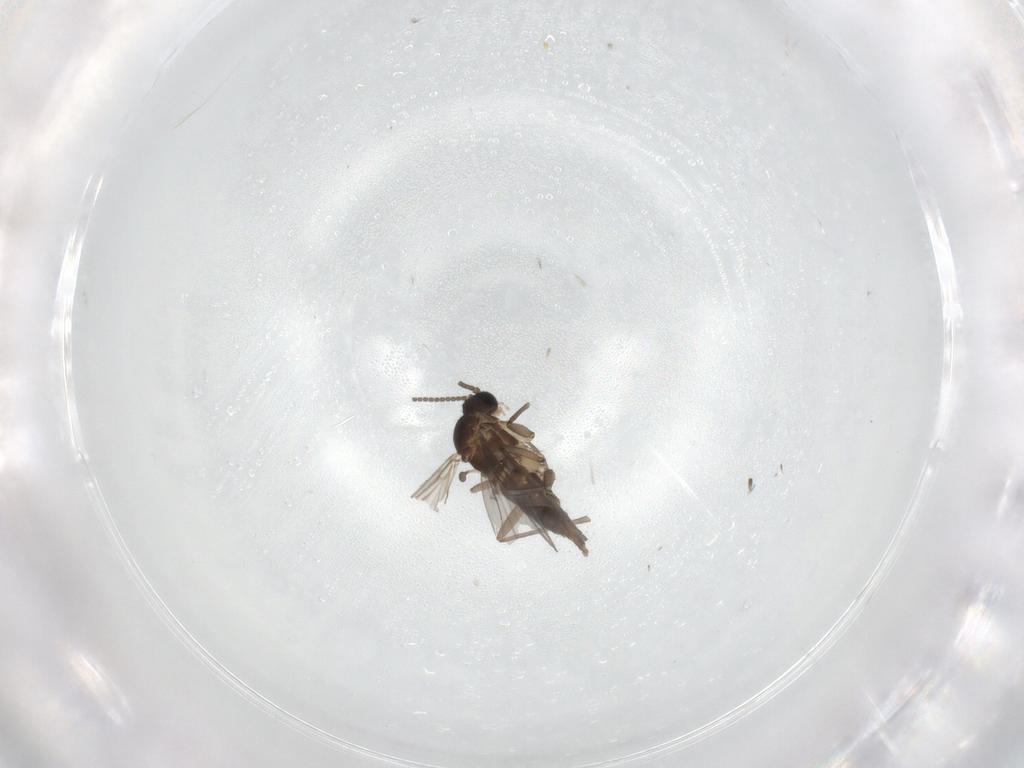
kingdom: Animalia
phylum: Arthropoda
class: Insecta
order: Diptera
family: Sciaridae
